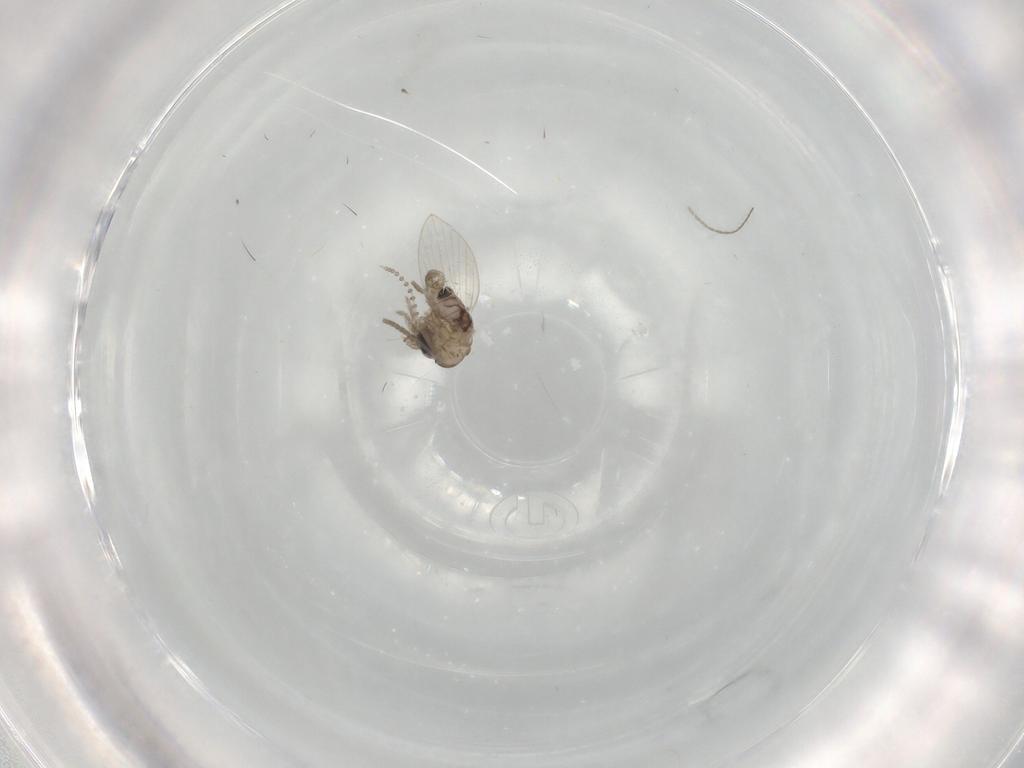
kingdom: Animalia
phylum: Arthropoda
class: Insecta
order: Diptera
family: Psychodidae
